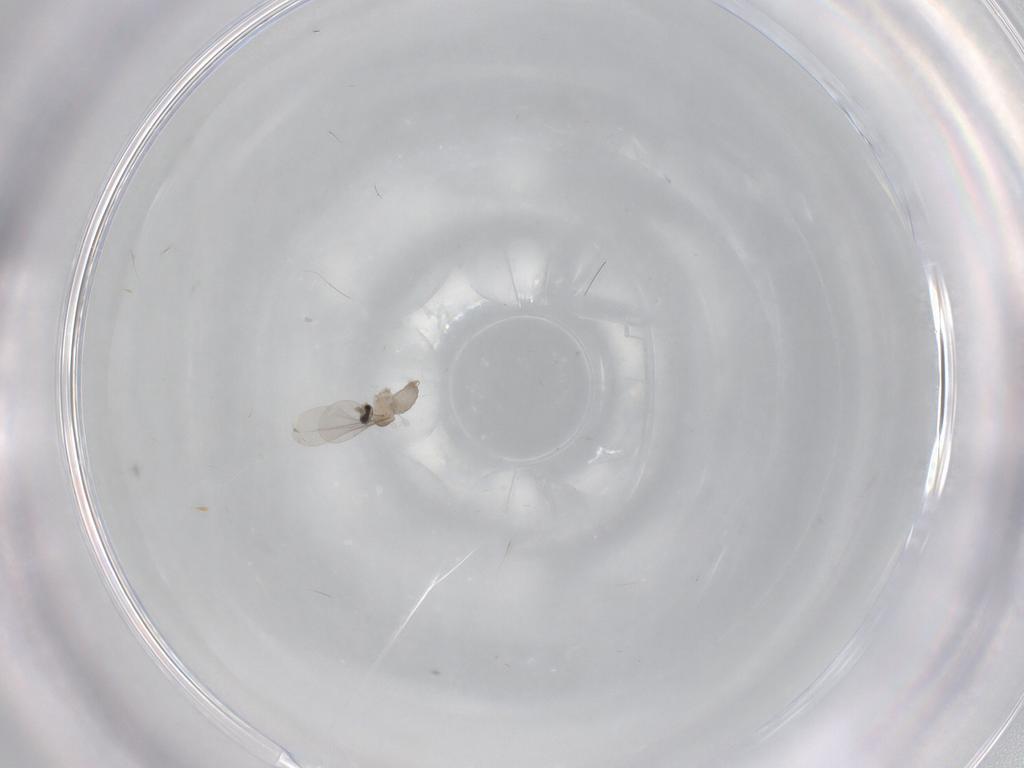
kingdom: Animalia
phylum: Arthropoda
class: Insecta
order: Diptera
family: Cecidomyiidae
